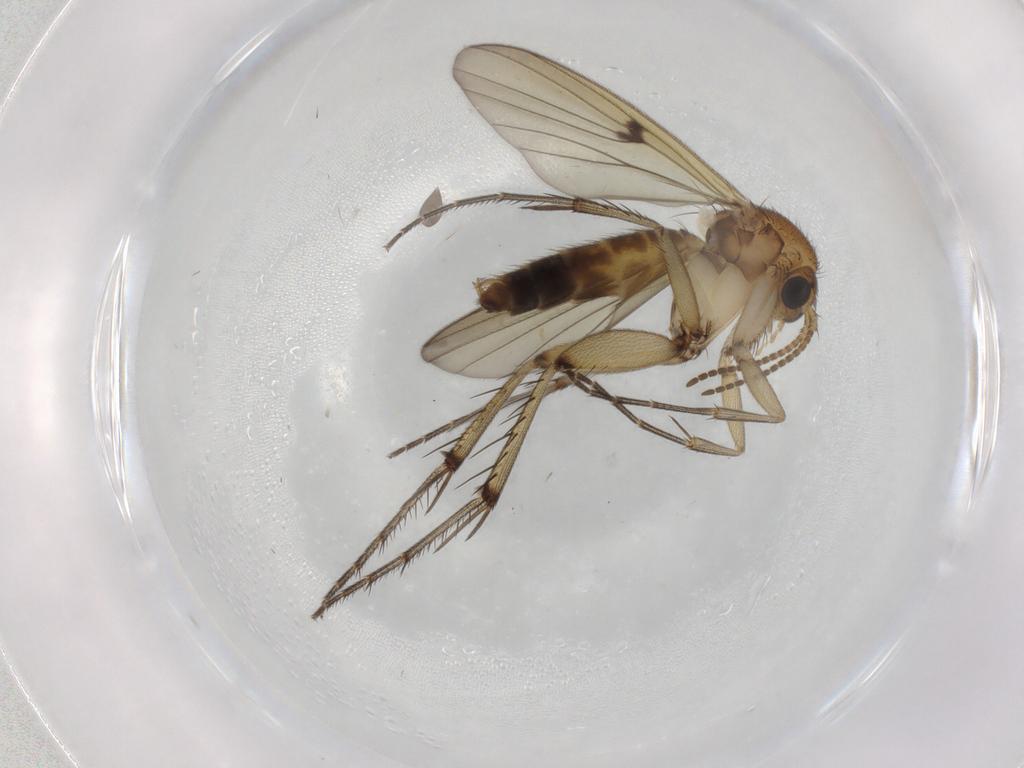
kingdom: Animalia
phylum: Arthropoda
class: Insecta
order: Diptera
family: Mycetophilidae
